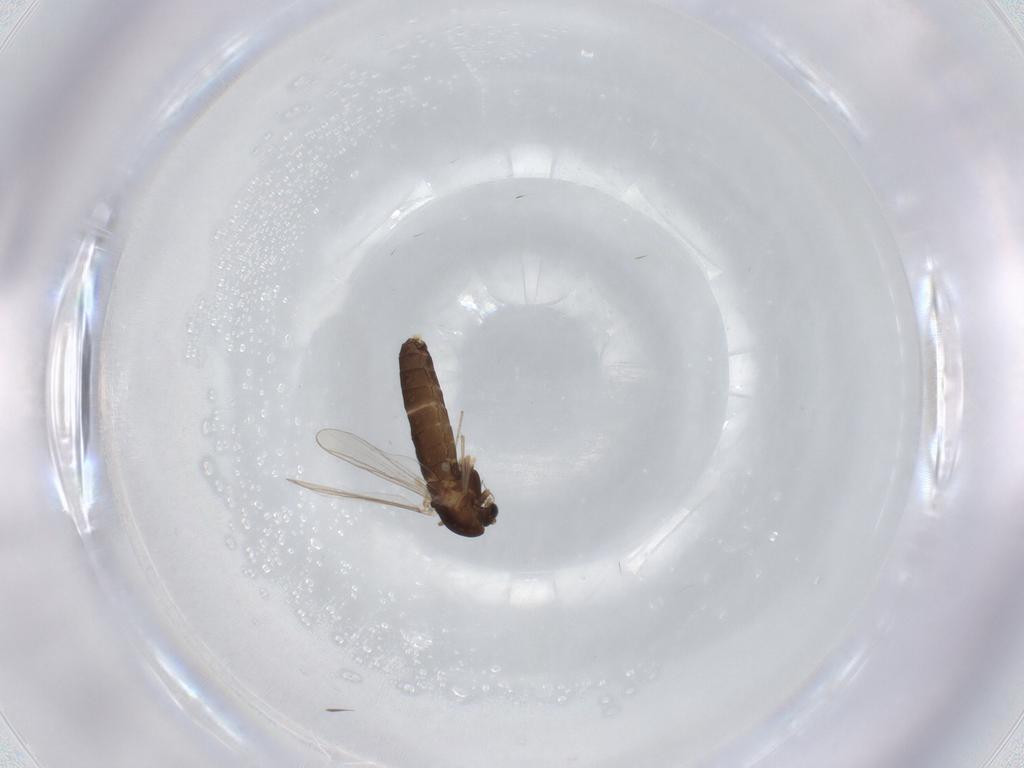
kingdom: Animalia
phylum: Arthropoda
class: Insecta
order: Diptera
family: Chironomidae
